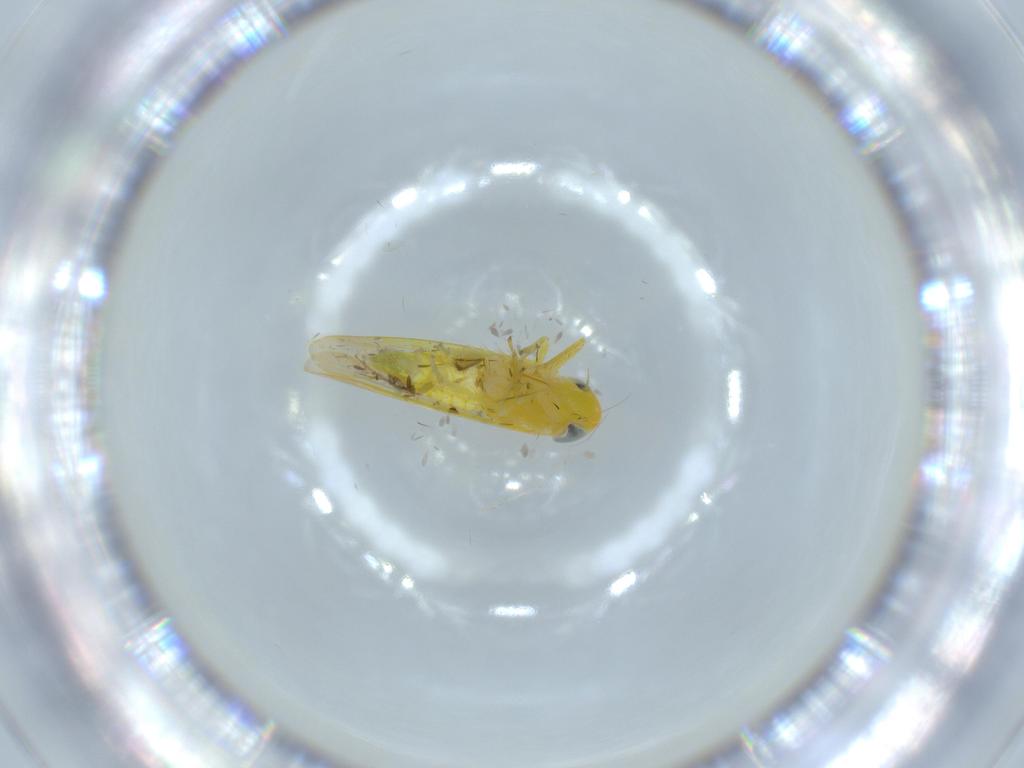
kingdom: Animalia
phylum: Arthropoda
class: Insecta
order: Hemiptera
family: Cicadellidae
